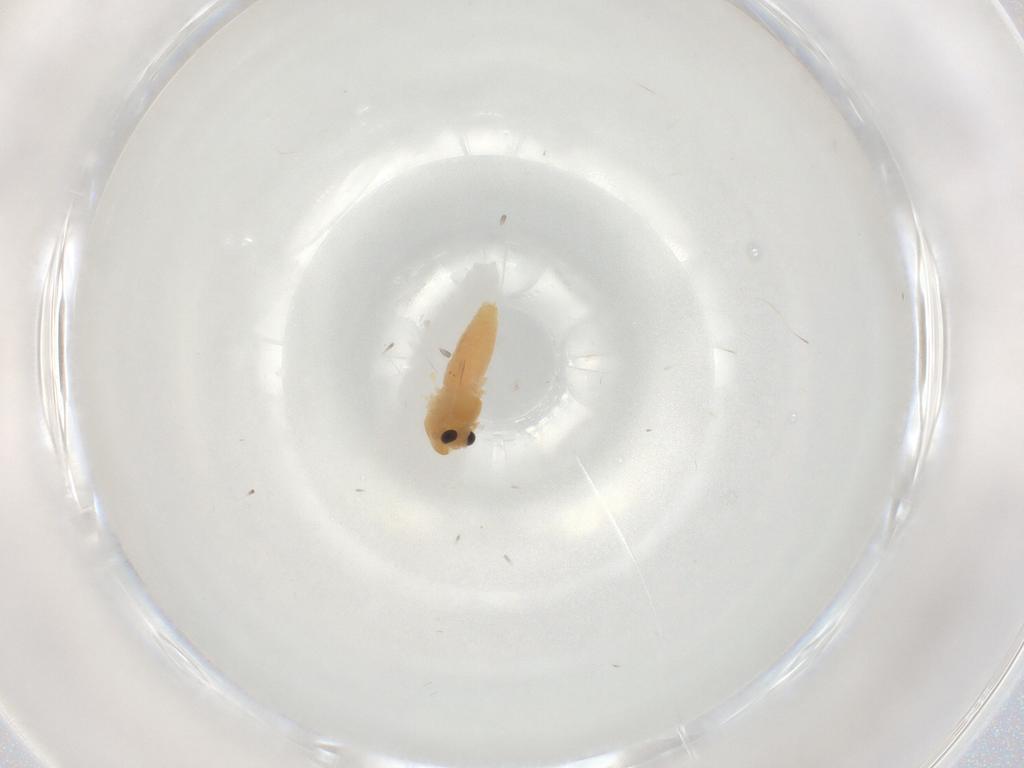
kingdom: Animalia
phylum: Arthropoda
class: Insecta
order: Diptera
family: Chironomidae
